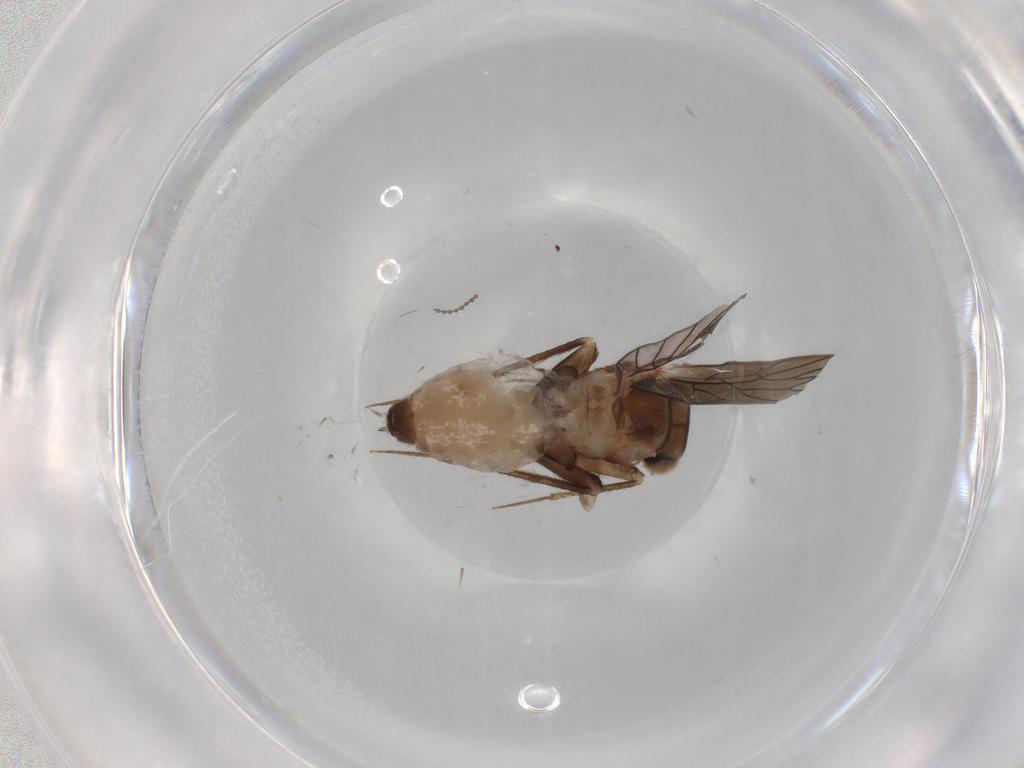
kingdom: Animalia
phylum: Arthropoda
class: Insecta
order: Psocodea
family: Lepidopsocidae
